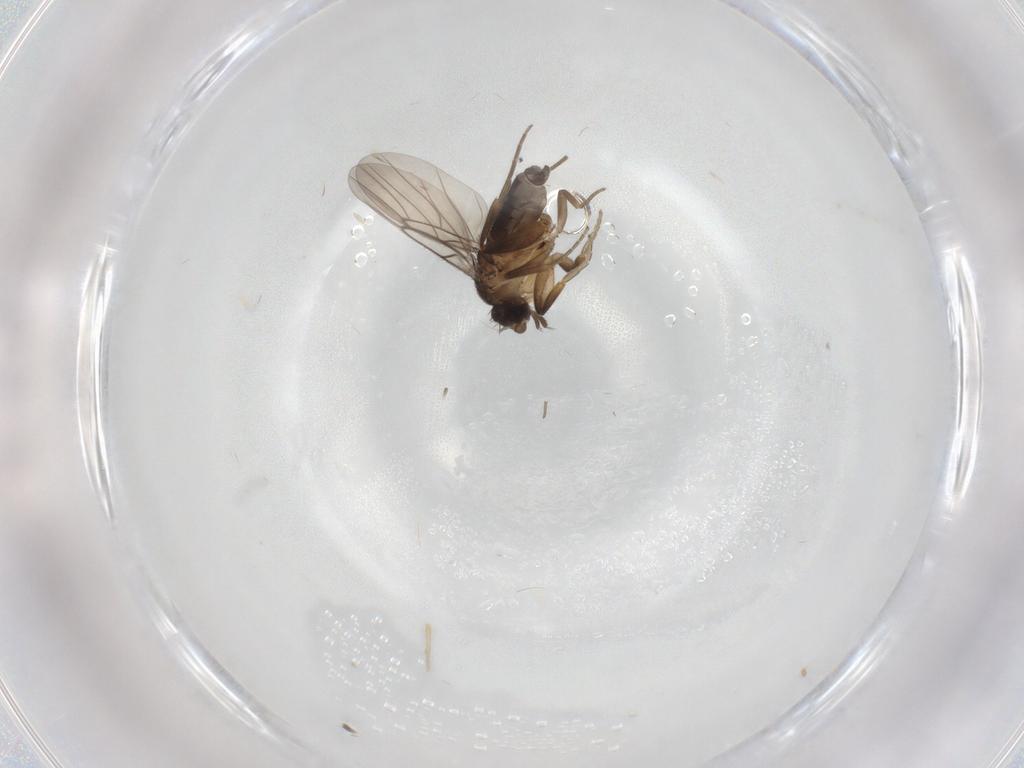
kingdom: Animalia
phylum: Arthropoda
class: Insecta
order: Diptera
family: Phoridae
